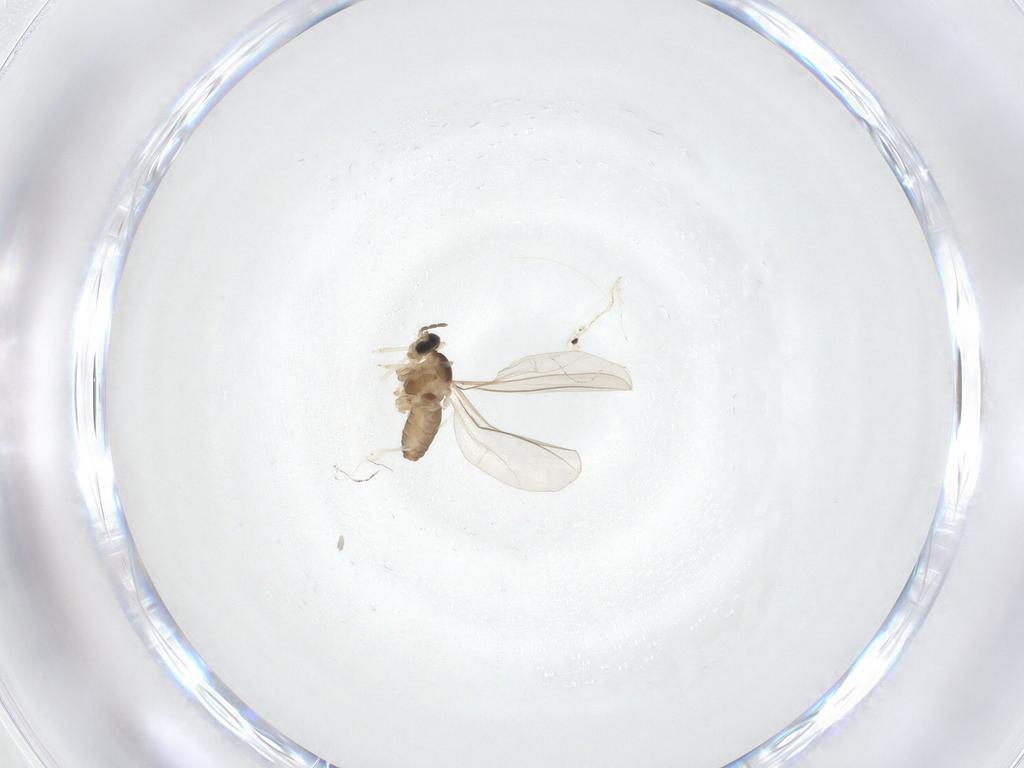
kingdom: Animalia
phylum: Arthropoda
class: Insecta
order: Diptera
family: Cecidomyiidae
